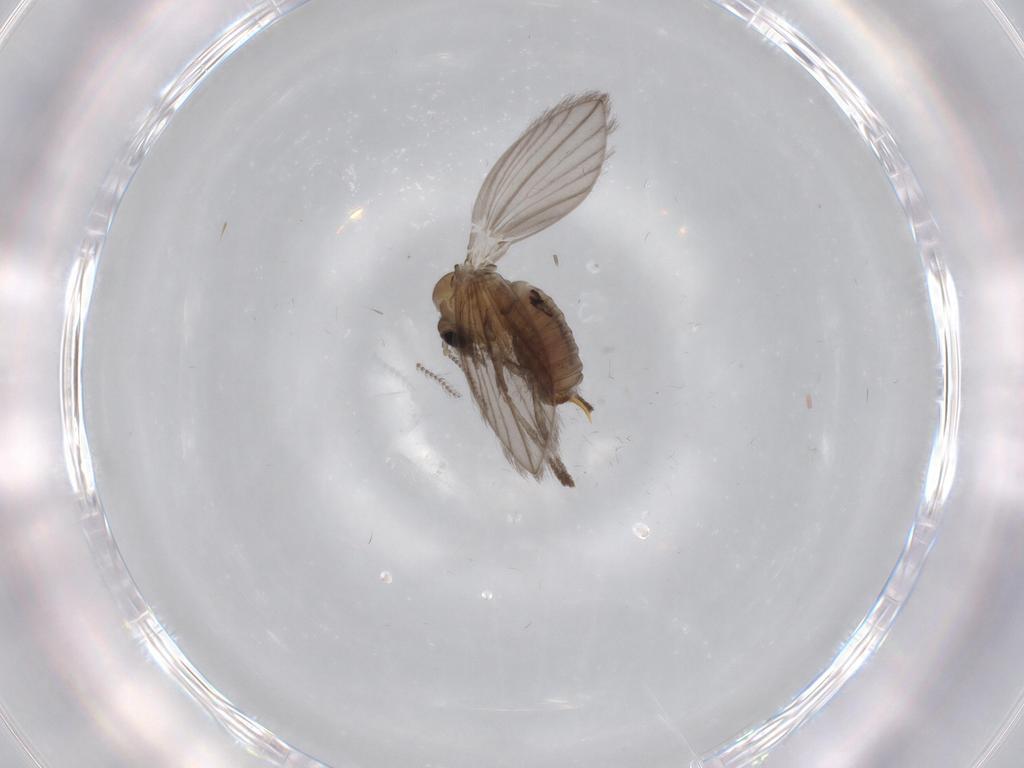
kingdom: Animalia
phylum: Arthropoda
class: Insecta
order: Diptera
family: Psychodidae
